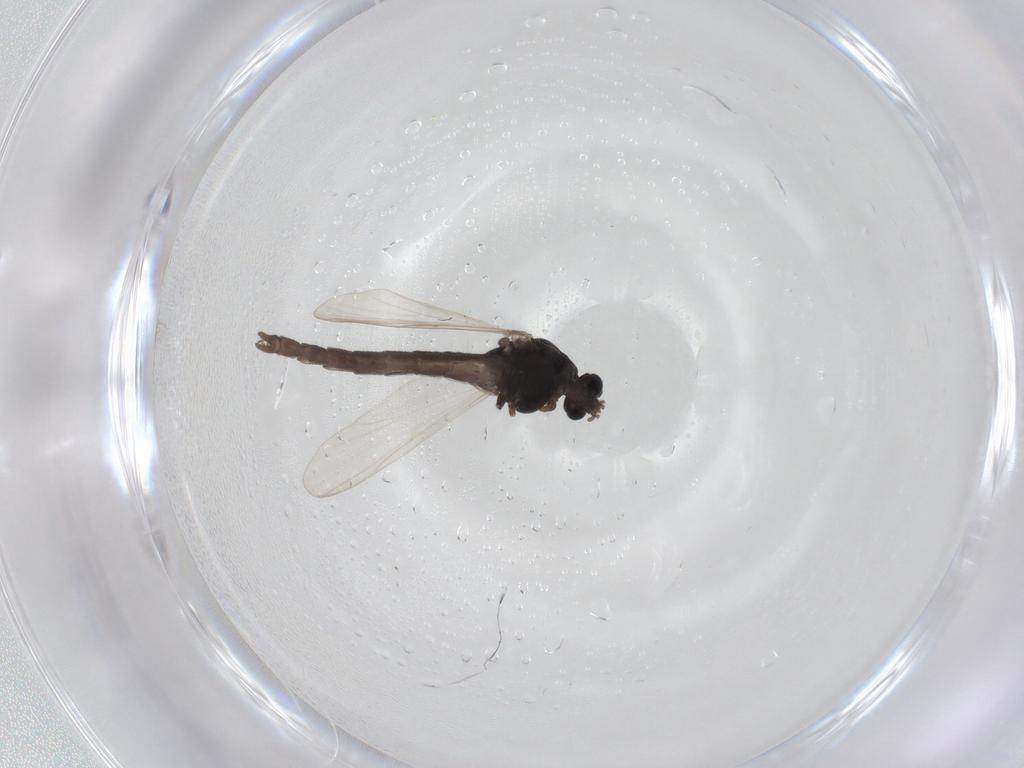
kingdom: Animalia
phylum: Arthropoda
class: Insecta
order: Diptera
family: Chironomidae
